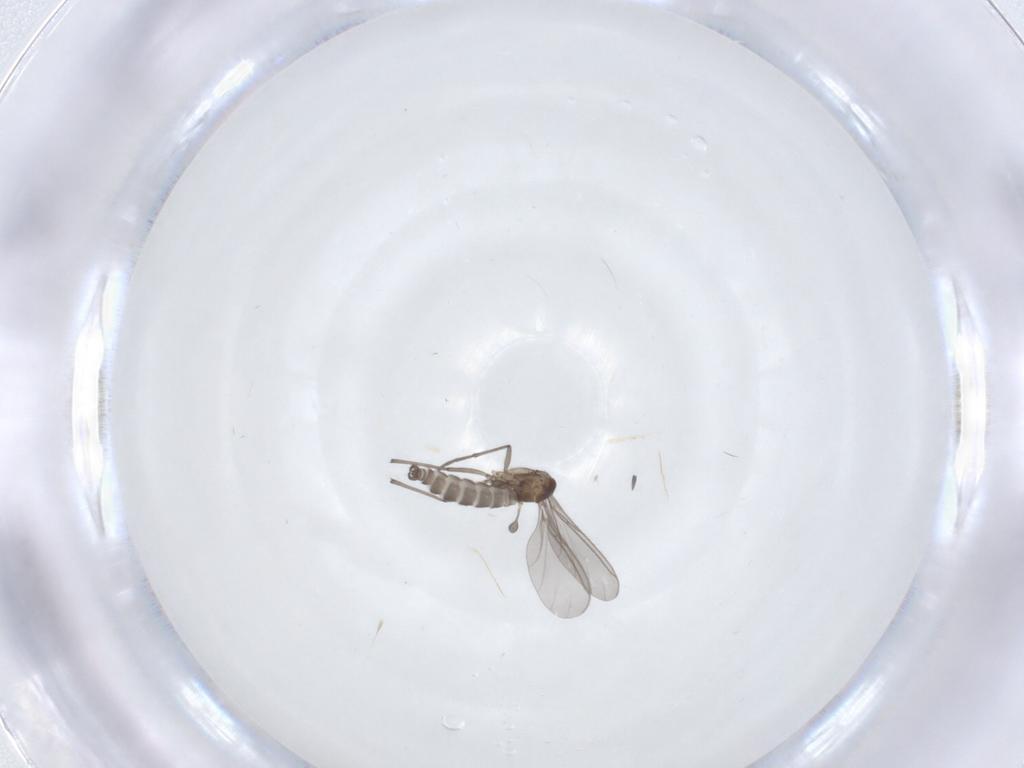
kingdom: Animalia
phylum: Arthropoda
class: Insecta
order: Diptera
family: Sciaridae
